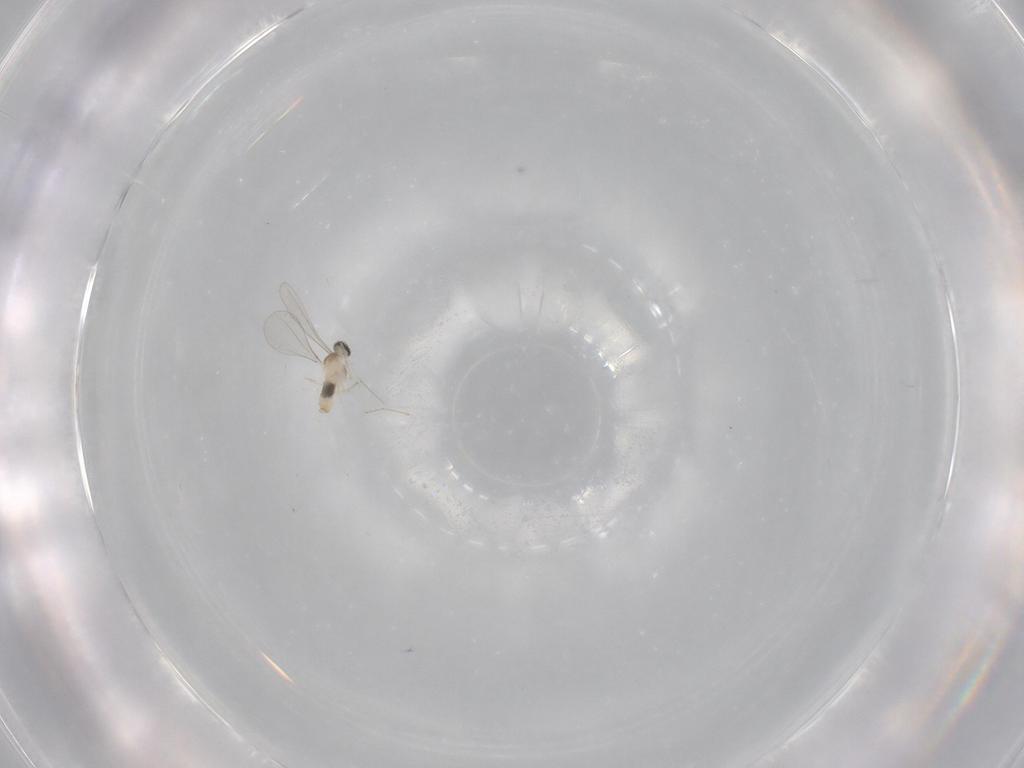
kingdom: Animalia
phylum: Arthropoda
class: Insecta
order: Diptera
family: Cecidomyiidae
